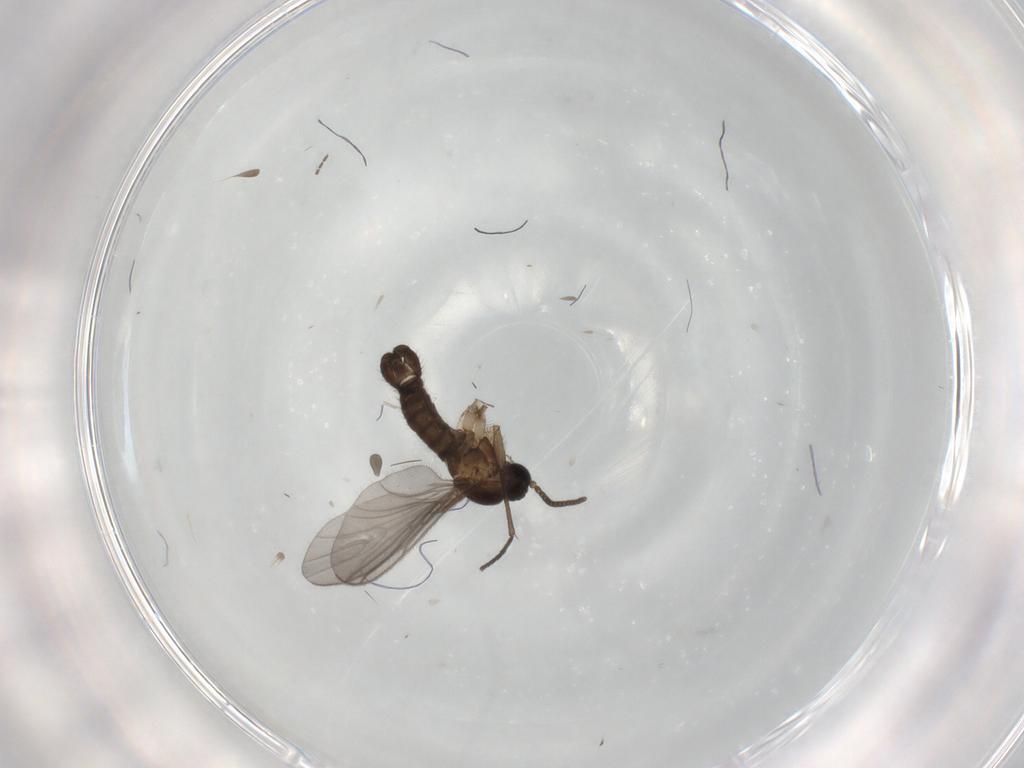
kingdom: Animalia
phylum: Arthropoda
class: Insecta
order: Diptera
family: Sciaridae
